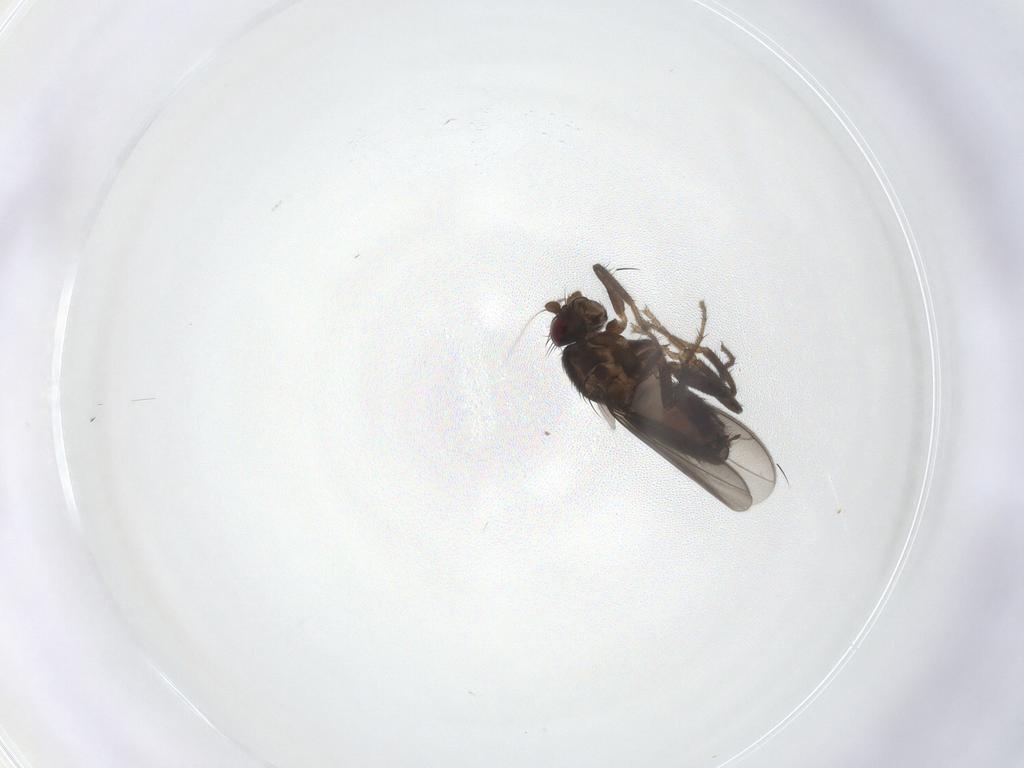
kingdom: Animalia
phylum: Arthropoda
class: Insecta
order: Diptera
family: Sphaeroceridae
